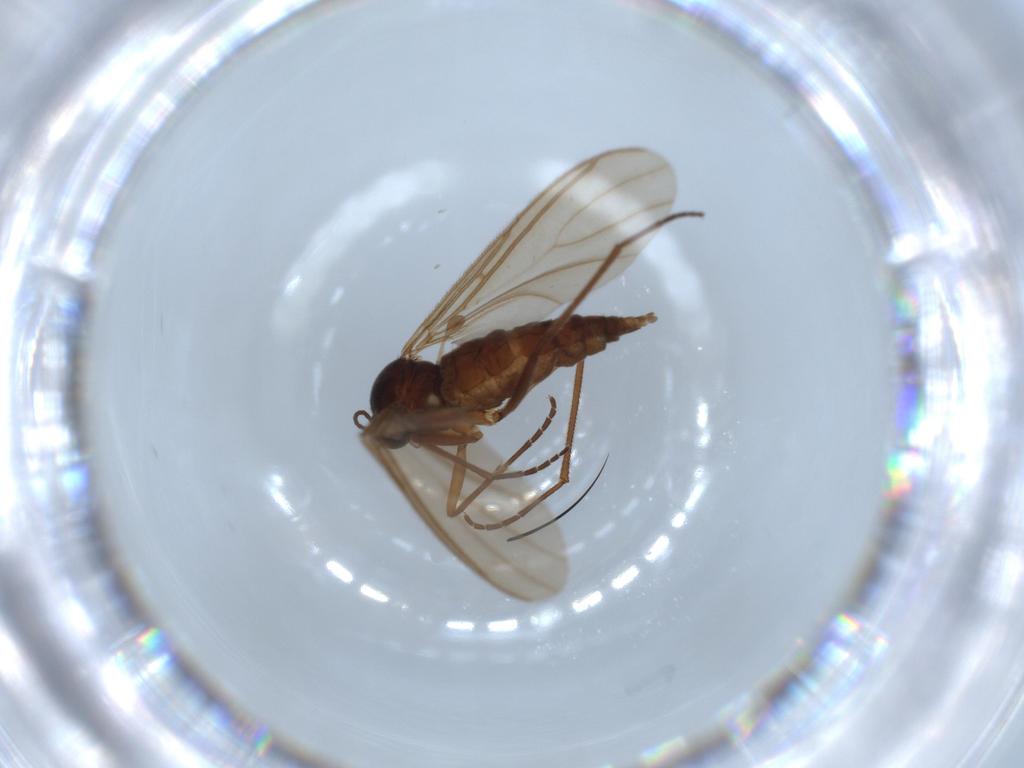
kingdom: Animalia
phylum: Arthropoda
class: Insecta
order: Diptera
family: Sciaridae
